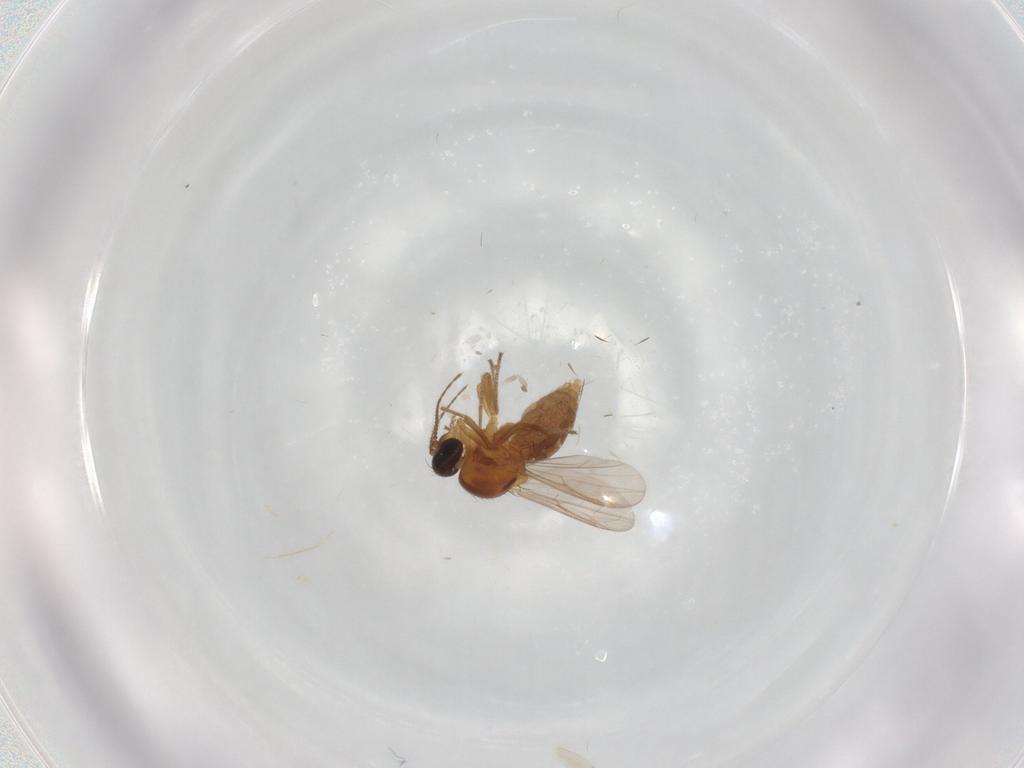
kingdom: Animalia
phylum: Arthropoda
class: Insecta
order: Diptera
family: Ceratopogonidae
